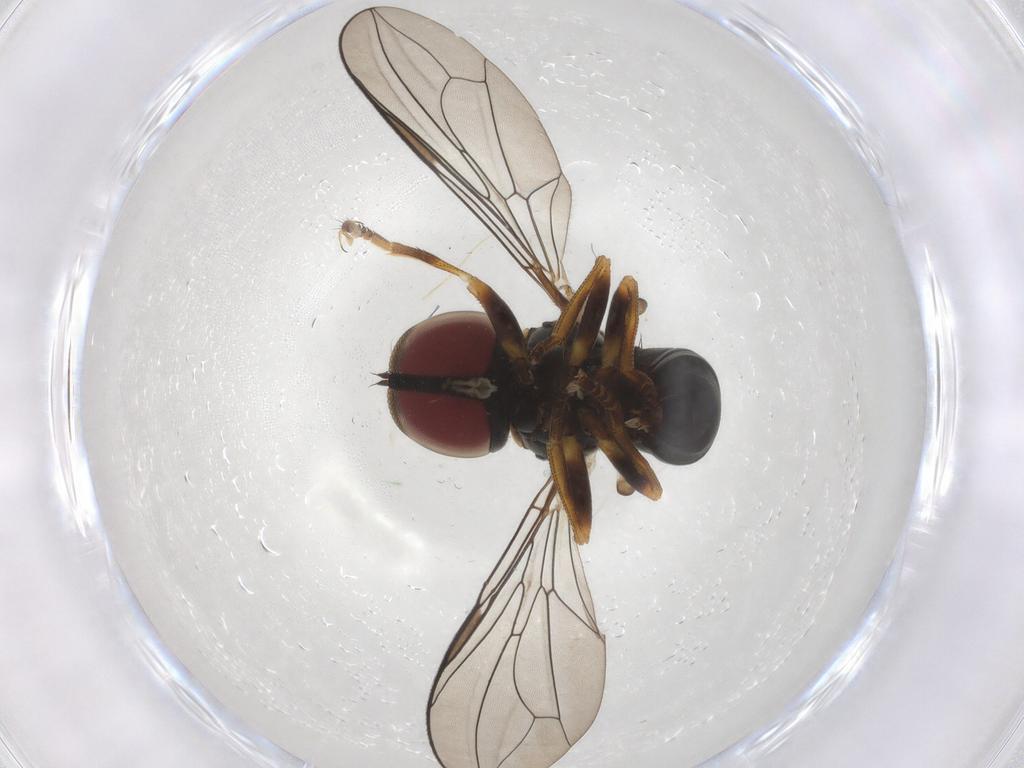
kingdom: Animalia
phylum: Arthropoda
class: Insecta
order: Diptera
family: Pipunculidae
